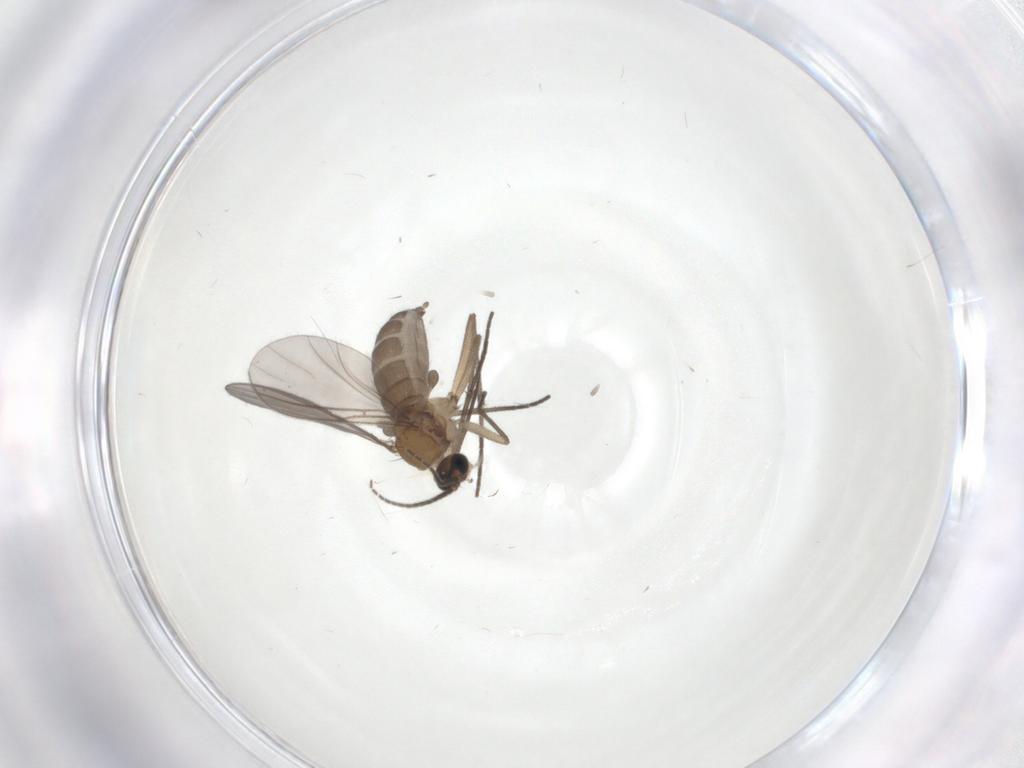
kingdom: Animalia
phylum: Arthropoda
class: Insecta
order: Diptera
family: Sciaridae
